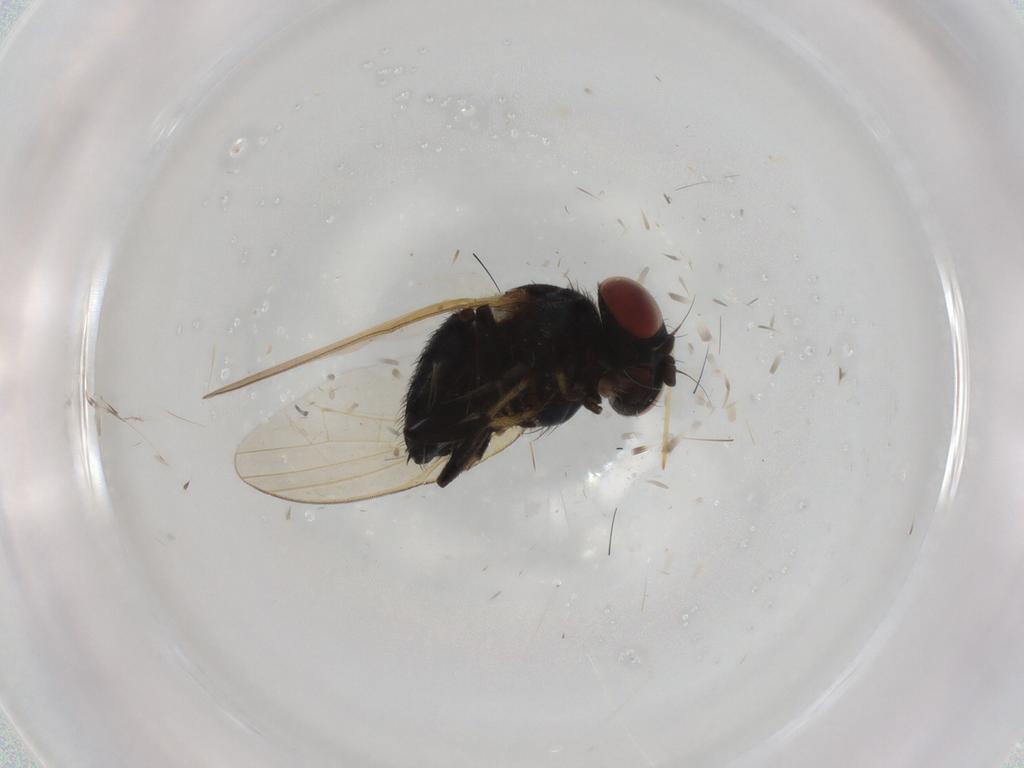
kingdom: Animalia
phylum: Arthropoda
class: Insecta
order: Diptera
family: Lonchaeidae
